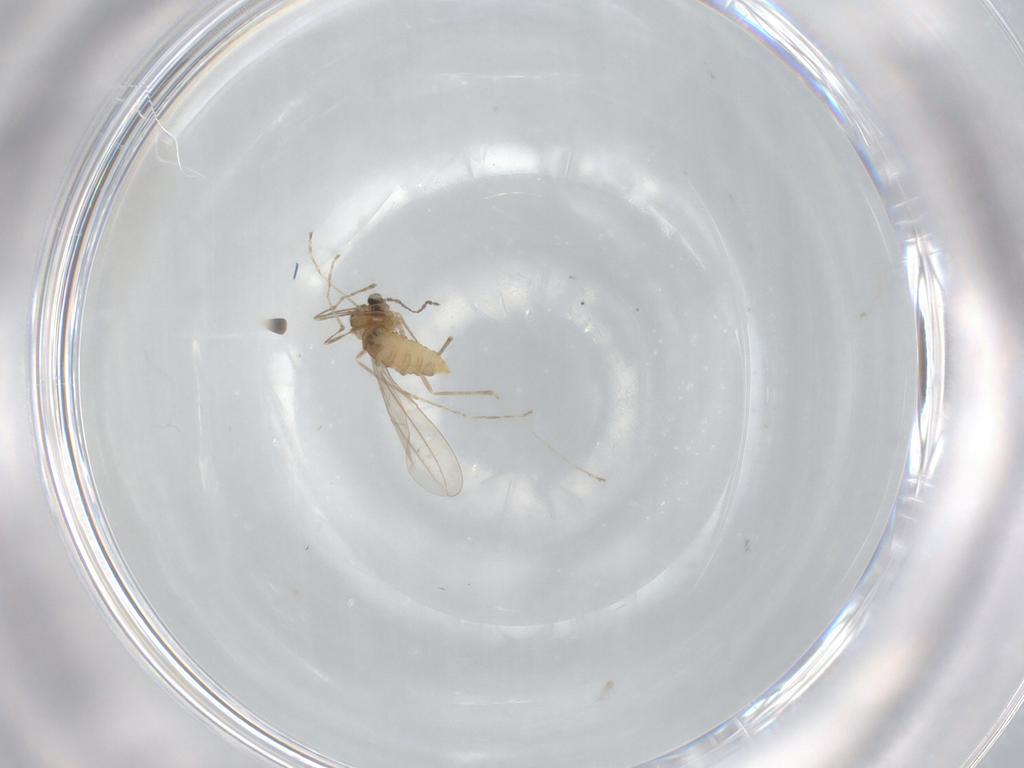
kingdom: Animalia
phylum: Arthropoda
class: Insecta
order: Diptera
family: Cecidomyiidae
